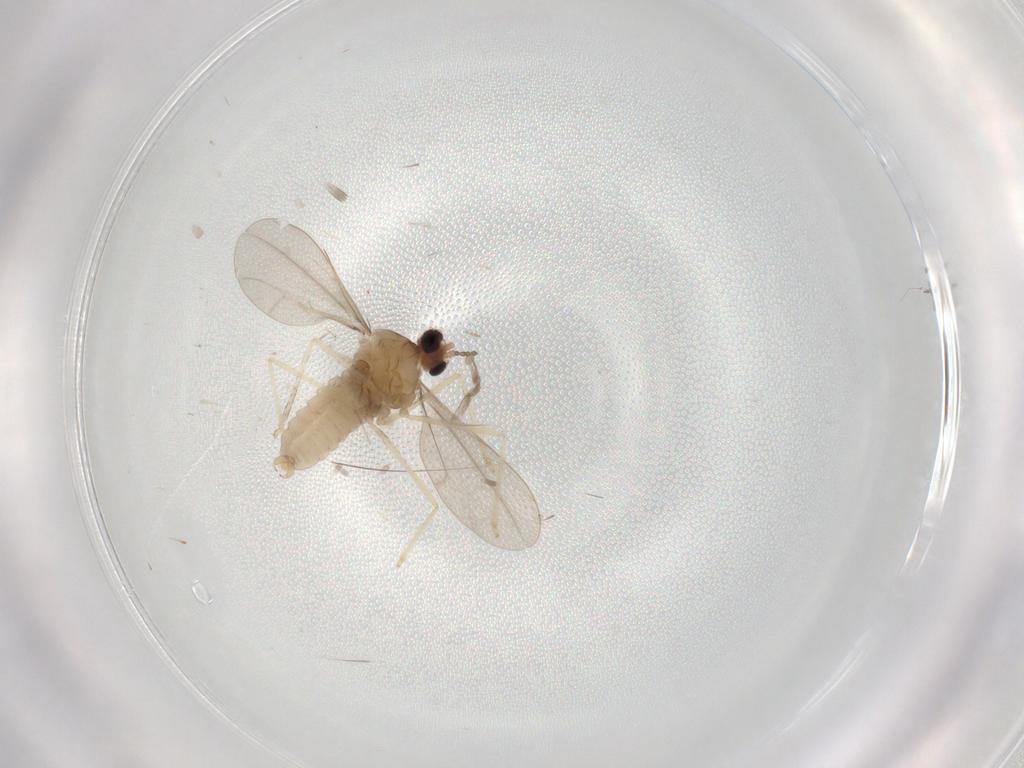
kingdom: Animalia
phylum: Arthropoda
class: Insecta
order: Diptera
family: Cecidomyiidae
